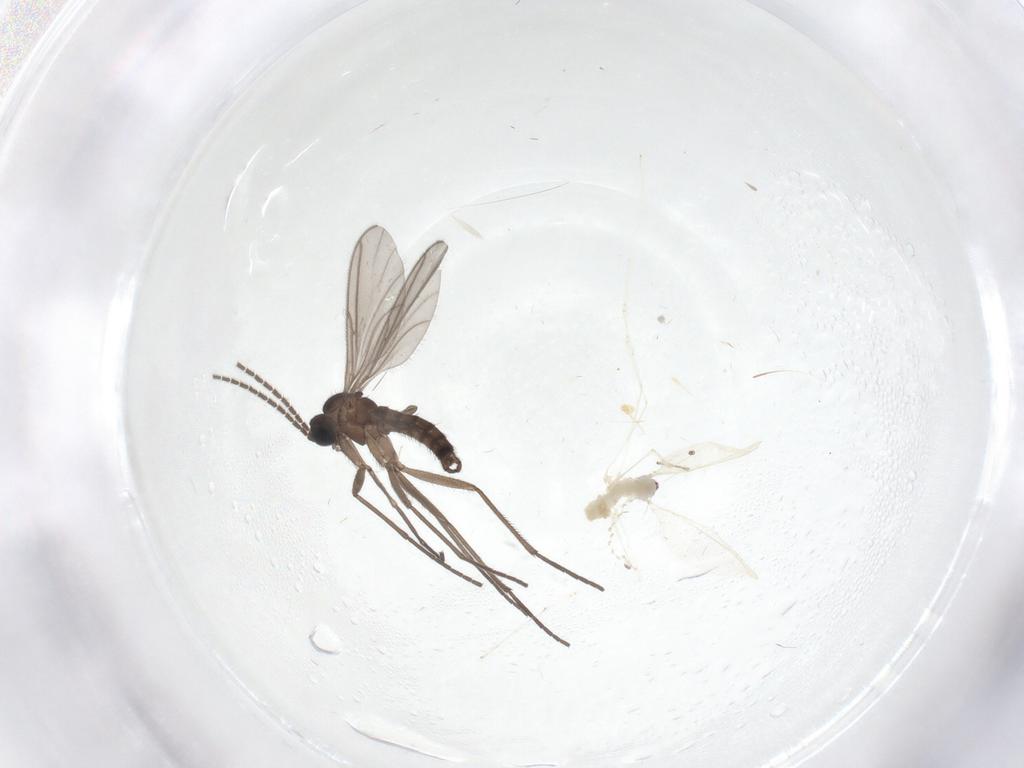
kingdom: Animalia
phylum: Arthropoda
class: Insecta
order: Diptera
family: Cecidomyiidae
